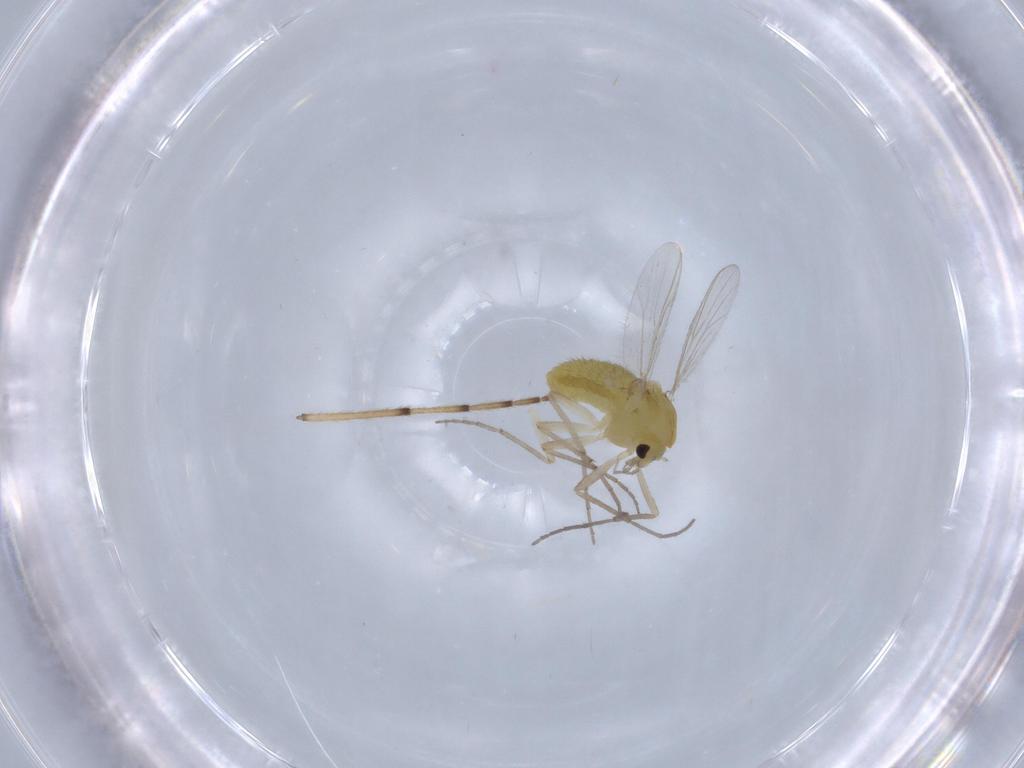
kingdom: Animalia
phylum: Arthropoda
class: Insecta
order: Diptera
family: Chironomidae
